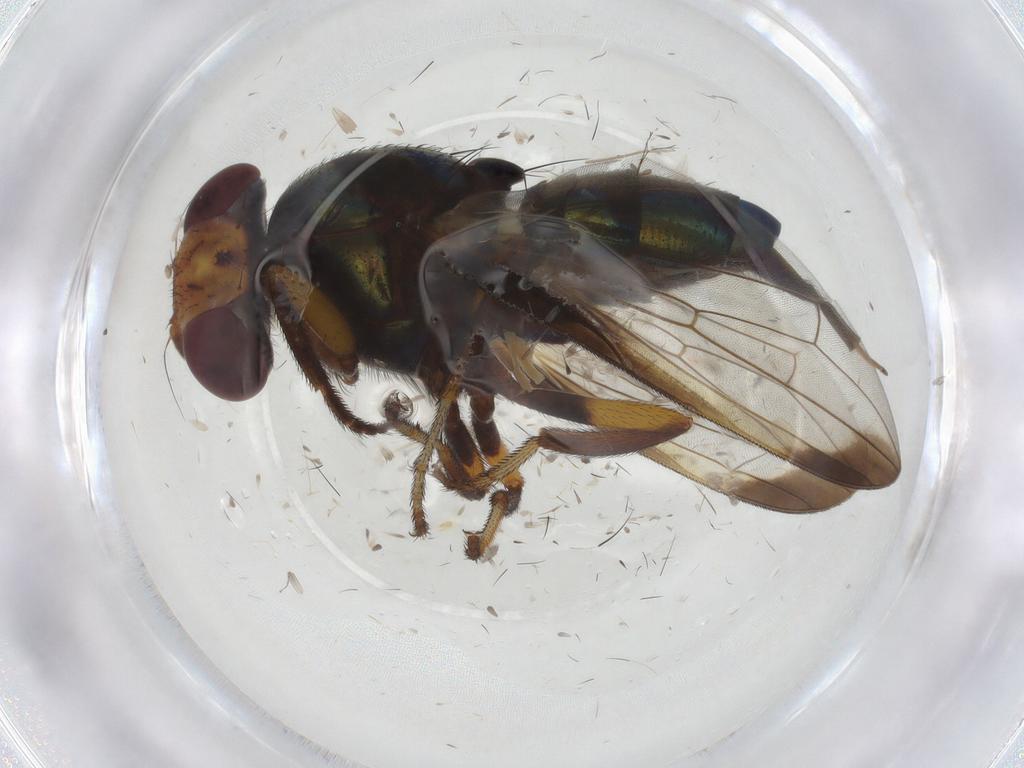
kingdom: Animalia
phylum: Arthropoda
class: Insecta
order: Diptera
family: Ulidiidae
